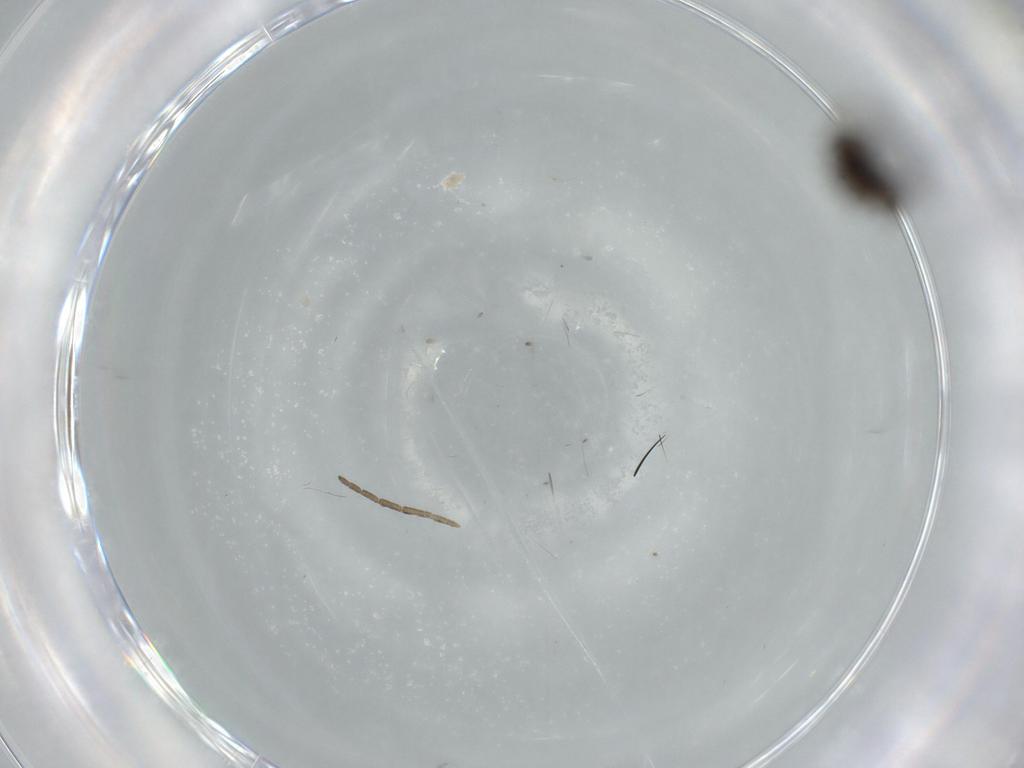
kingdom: Animalia
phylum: Arthropoda
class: Insecta
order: Diptera
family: Phoridae
